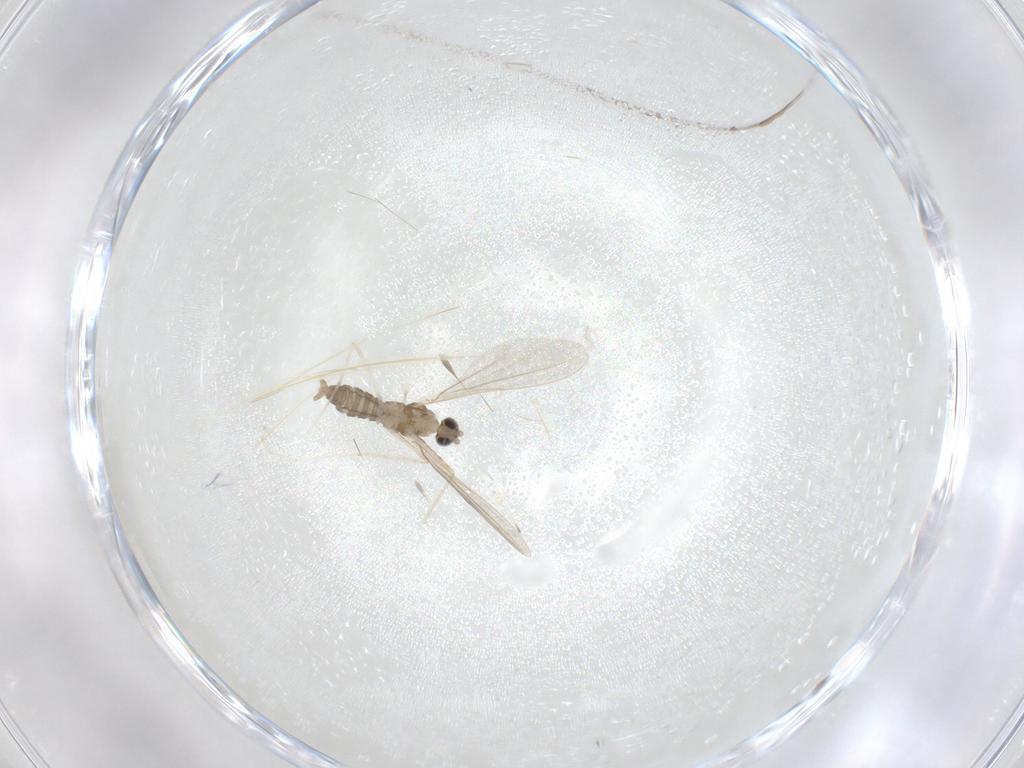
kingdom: Animalia
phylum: Arthropoda
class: Insecta
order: Diptera
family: Cecidomyiidae
